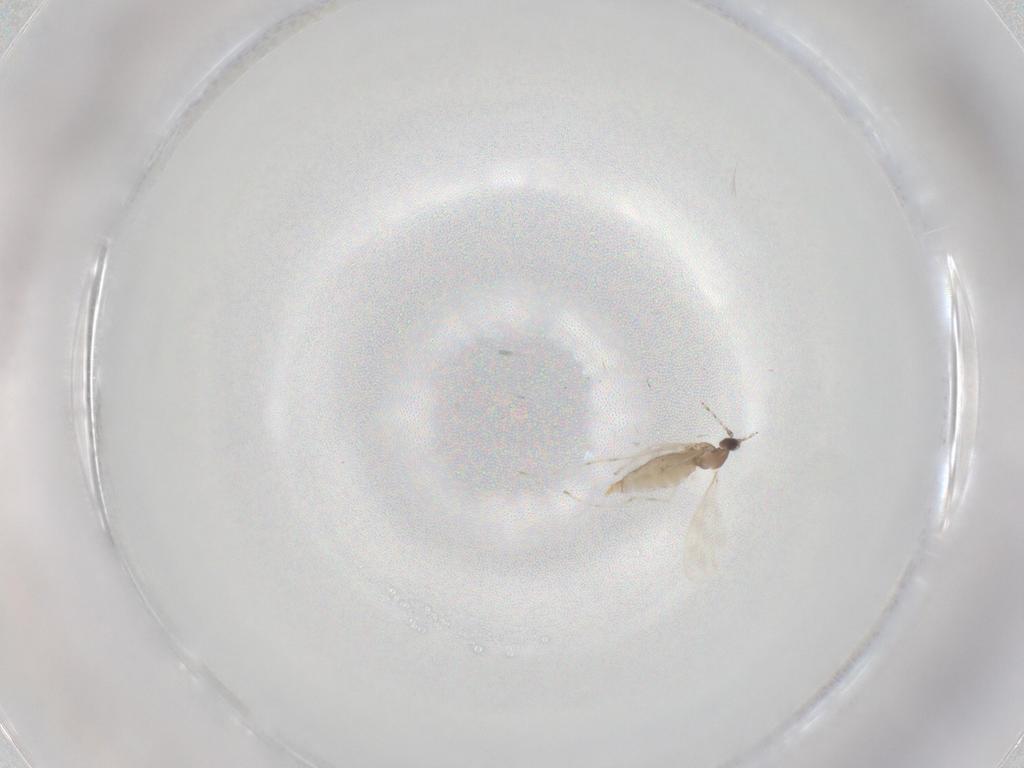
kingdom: Animalia
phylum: Arthropoda
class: Insecta
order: Diptera
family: Cecidomyiidae
